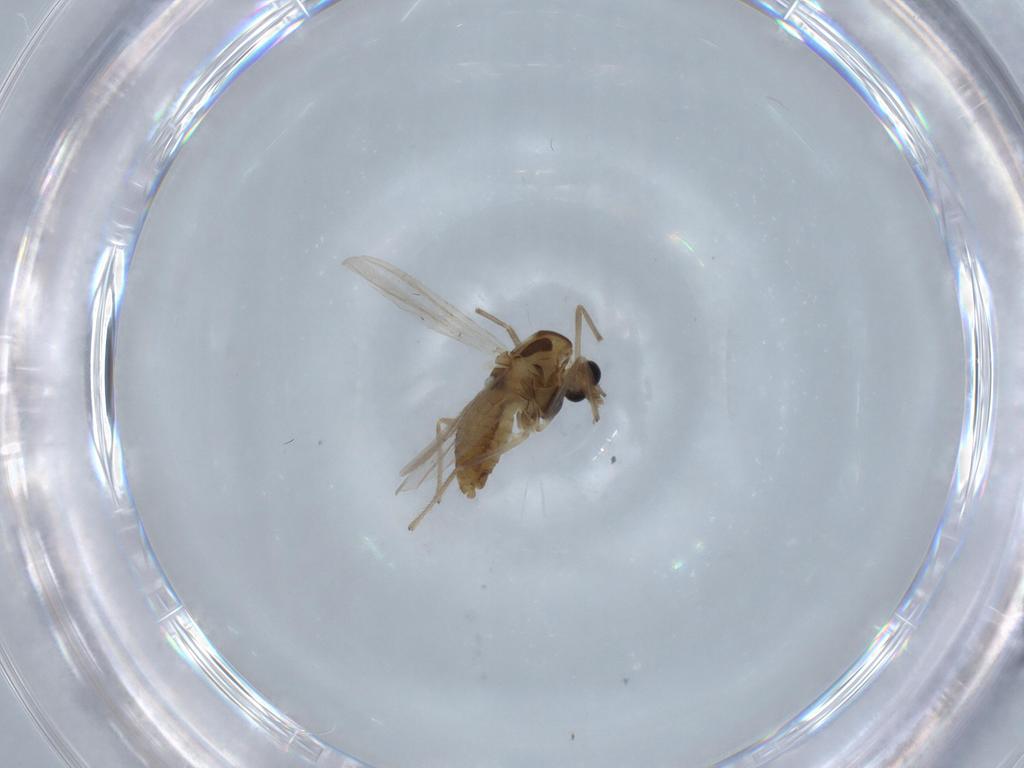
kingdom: Animalia
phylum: Arthropoda
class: Insecta
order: Diptera
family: Chironomidae
